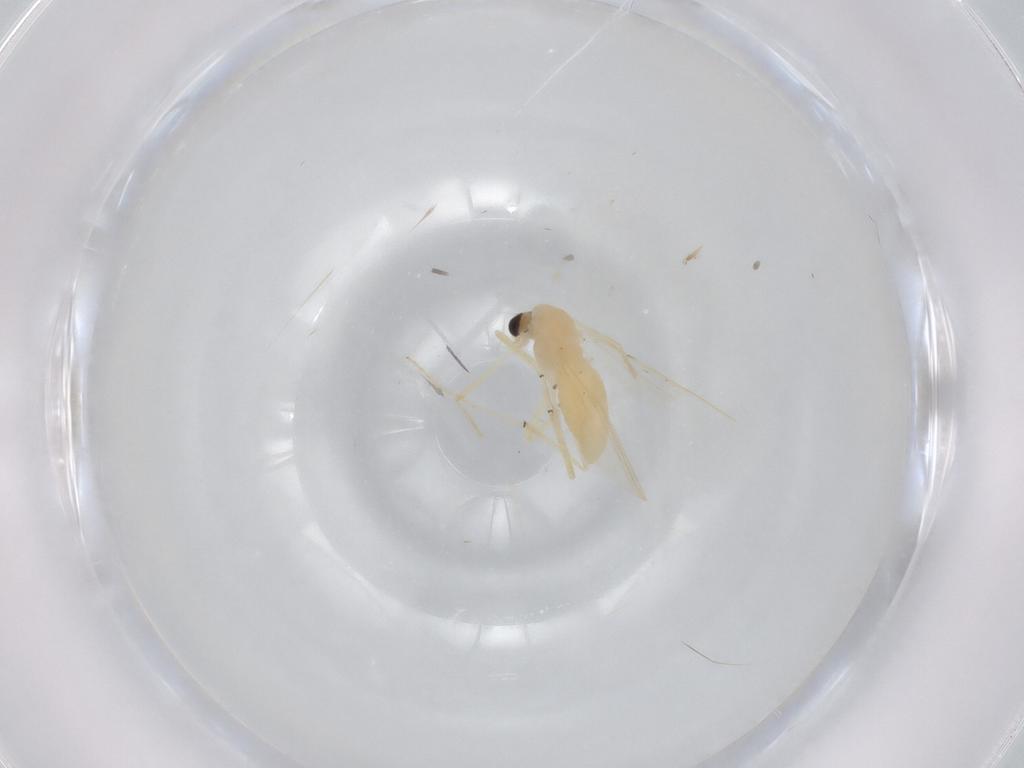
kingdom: Animalia
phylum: Arthropoda
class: Insecta
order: Diptera
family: Chironomidae
